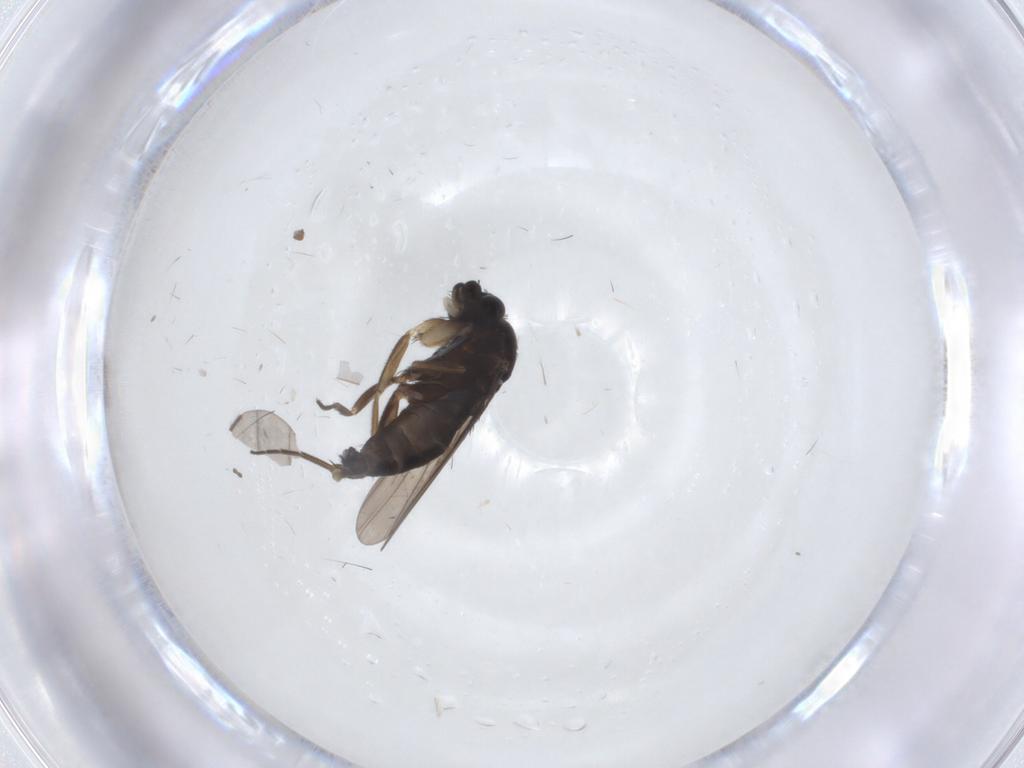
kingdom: Animalia
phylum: Arthropoda
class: Insecta
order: Diptera
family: Phoridae
